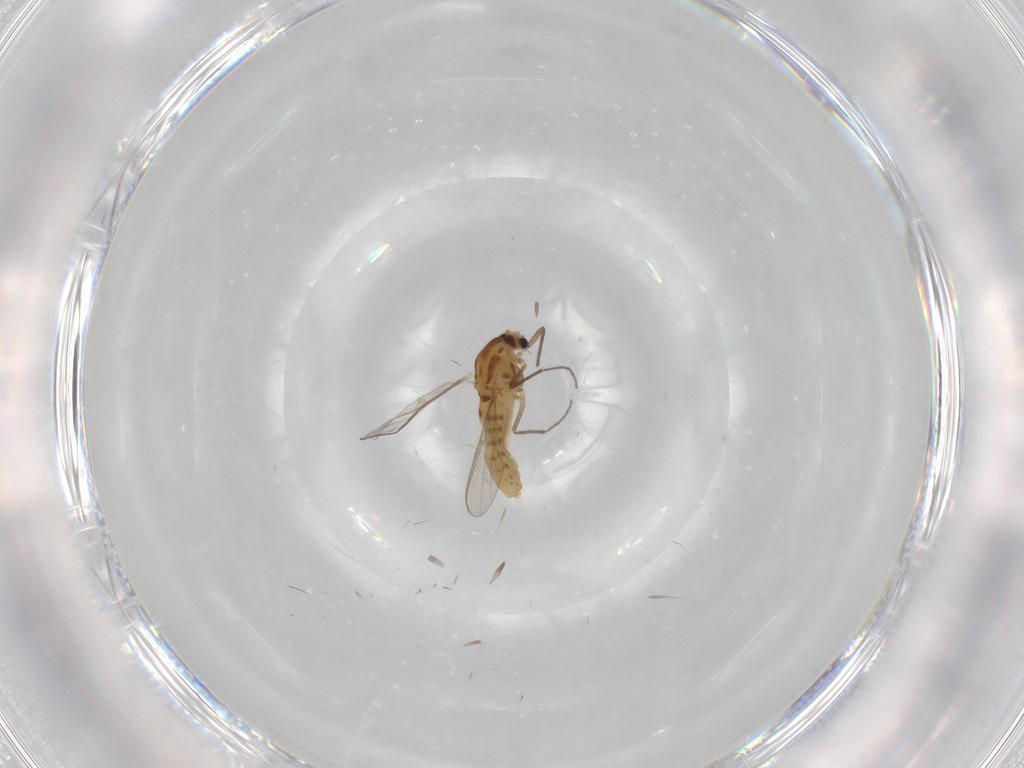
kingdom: Animalia
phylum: Arthropoda
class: Insecta
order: Diptera
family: Chironomidae
